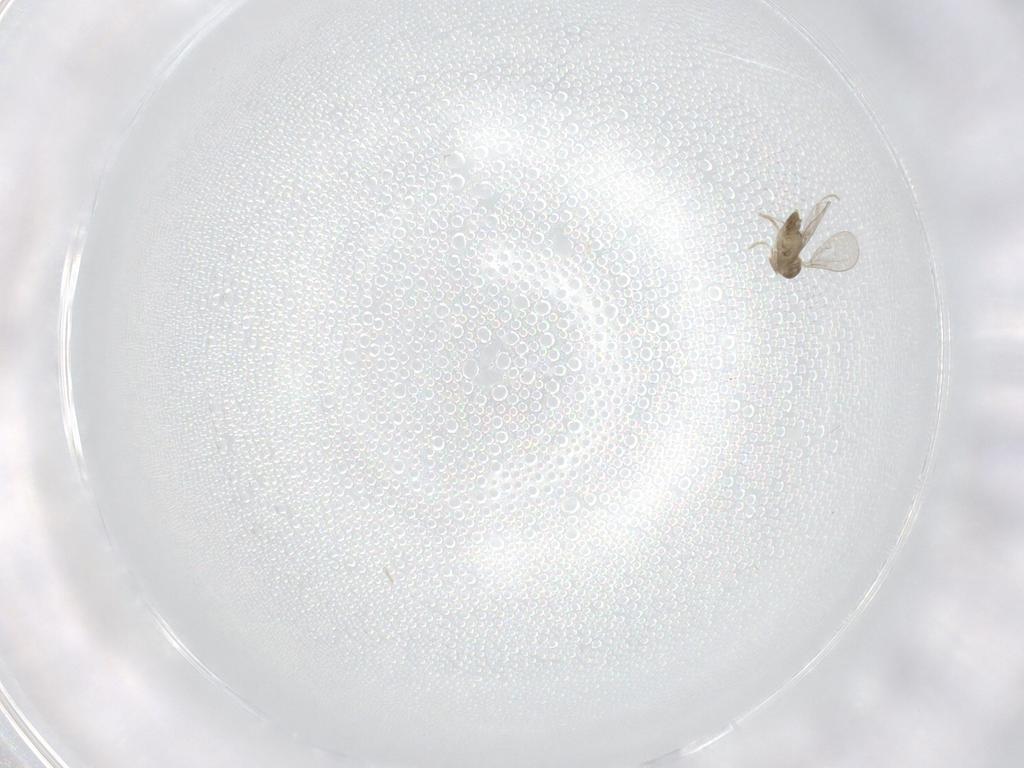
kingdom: Animalia
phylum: Arthropoda
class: Insecta
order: Diptera
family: Cecidomyiidae
